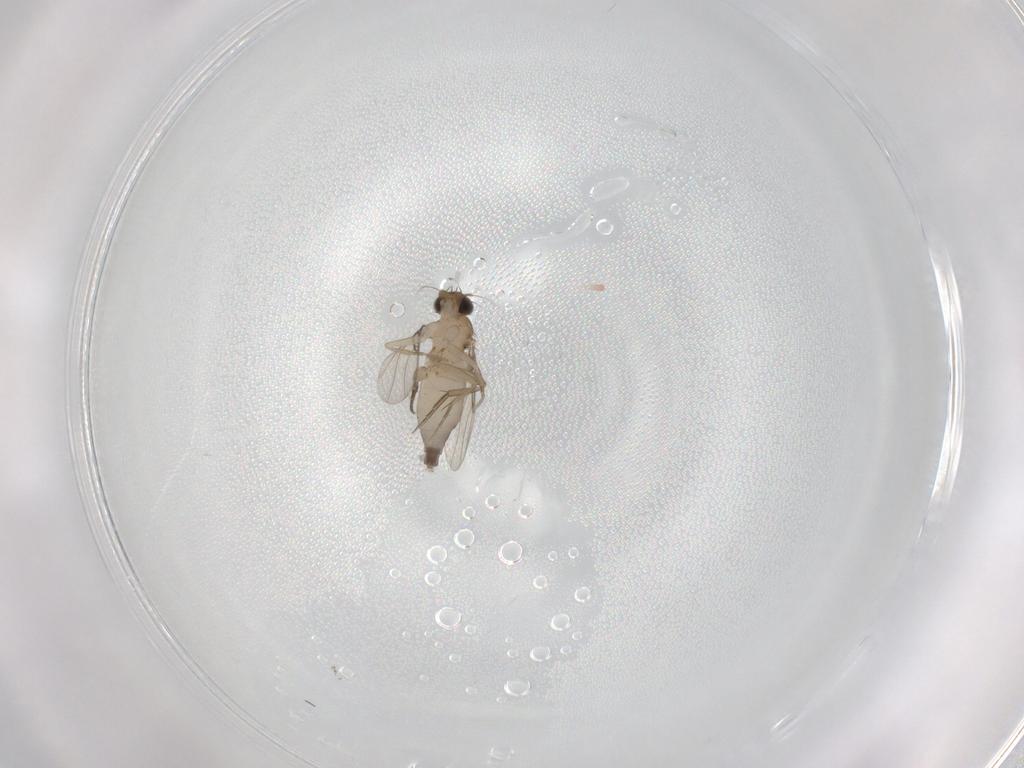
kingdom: Animalia
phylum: Arthropoda
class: Insecta
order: Diptera
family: Phoridae
